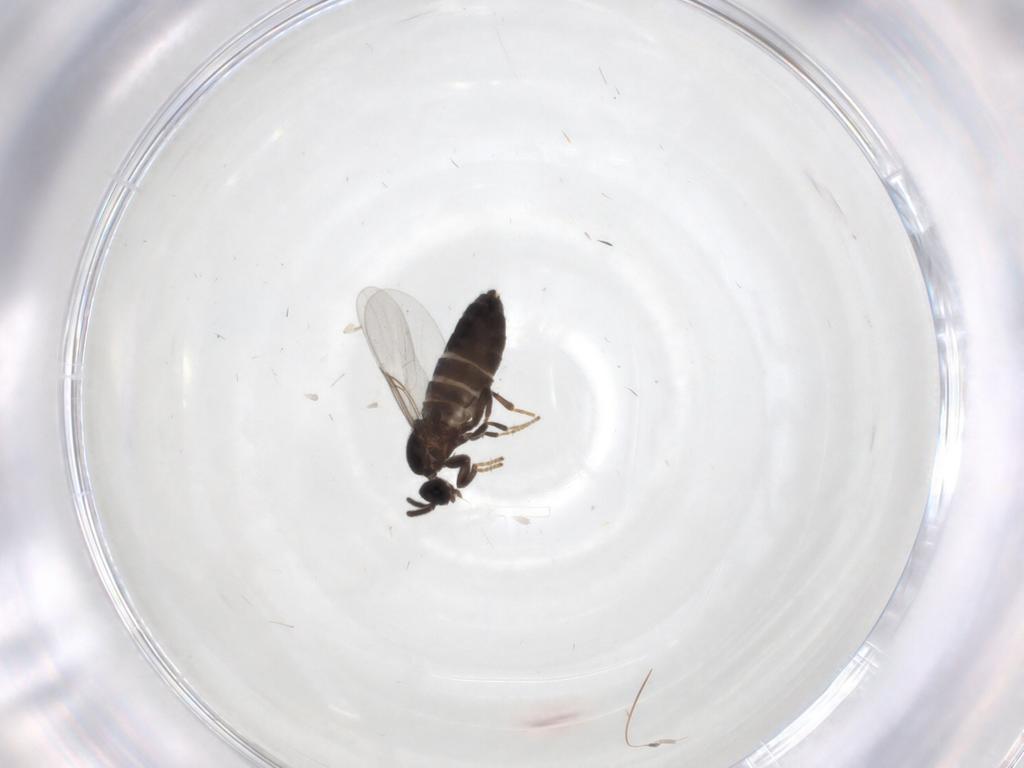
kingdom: Animalia
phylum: Arthropoda
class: Insecta
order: Diptera
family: Scatopsidae
